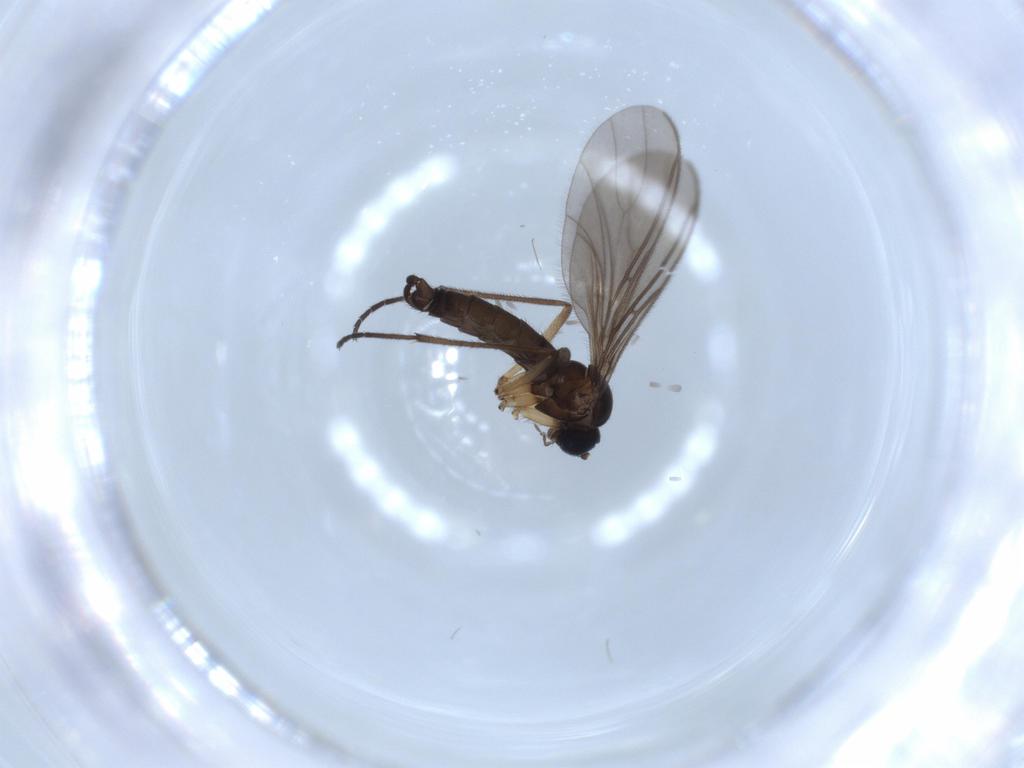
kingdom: Animalia
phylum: Arthropoda
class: Insecta
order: Diptera
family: Sciaridae
